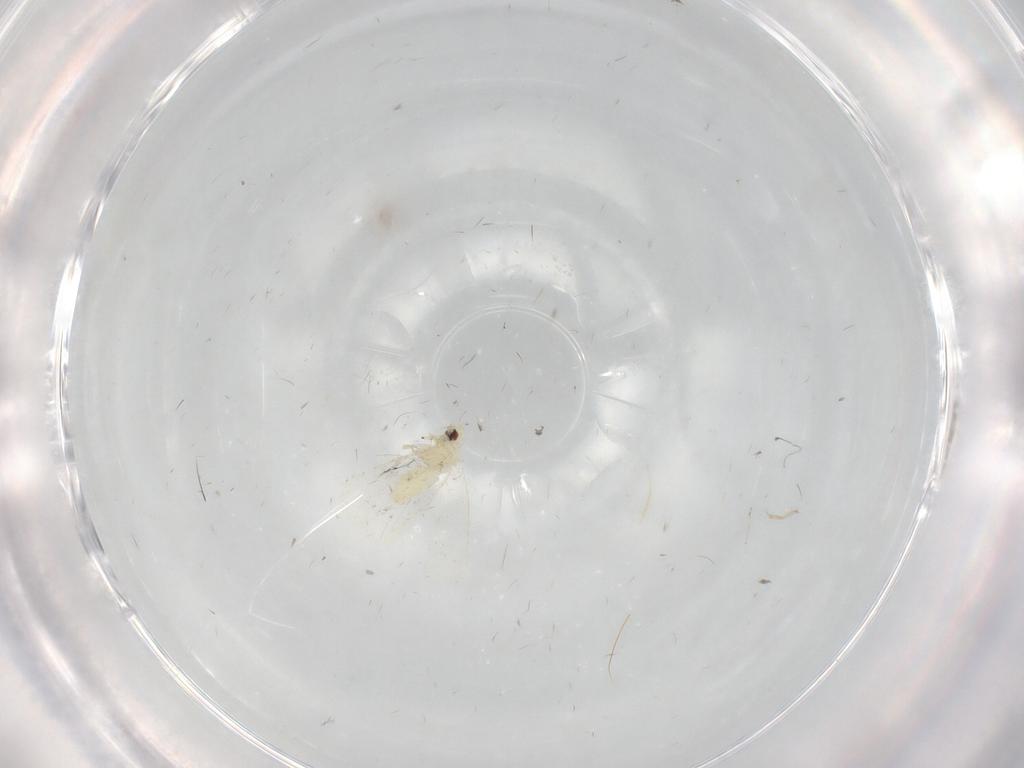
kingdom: Animalia
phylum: Arthropoda
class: Insecta
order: Hemiptera
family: Aleyrodidae
